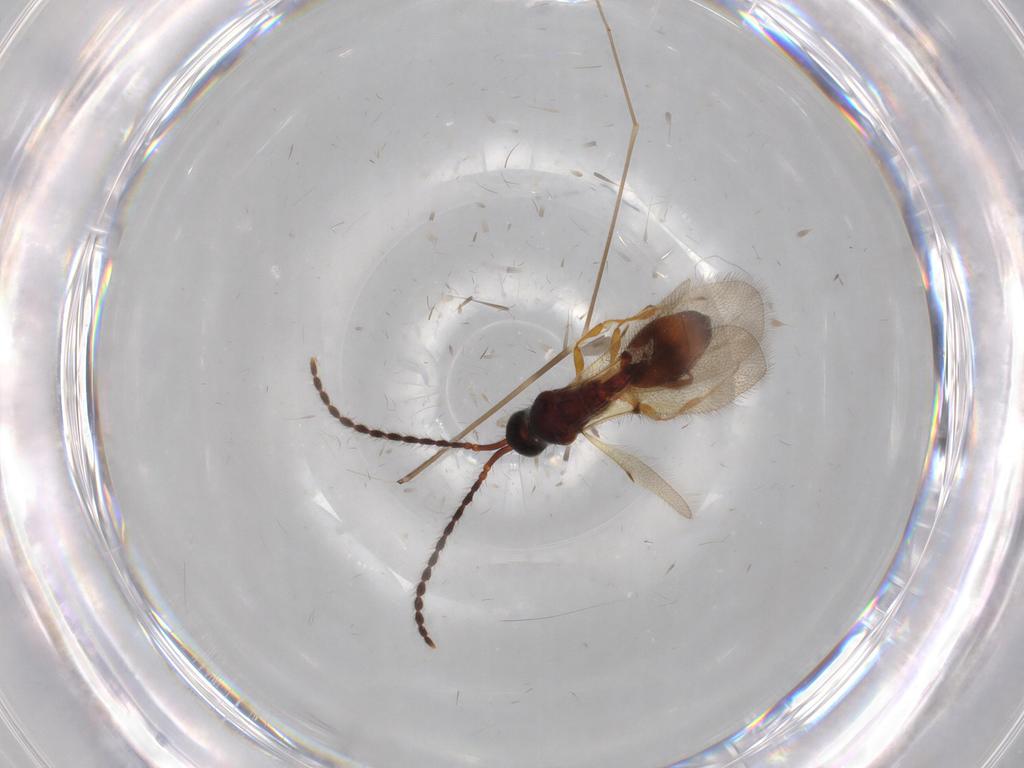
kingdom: Animalia
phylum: Arthropoda
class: Insecta
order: Hymenoptera
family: Diapriidae
